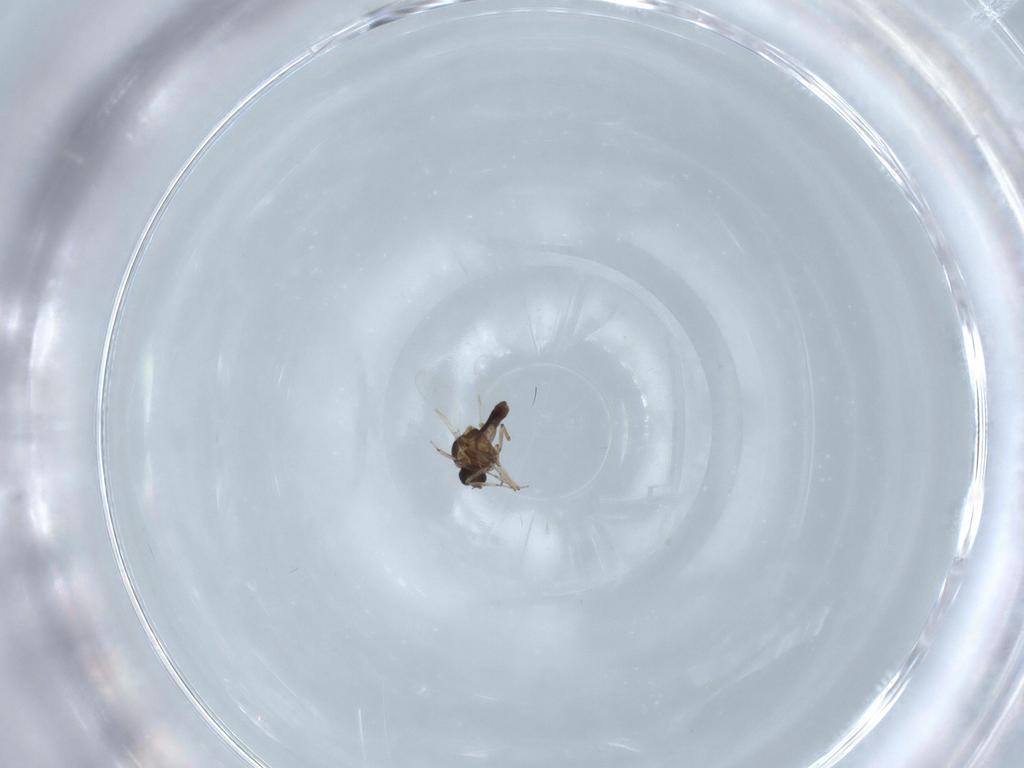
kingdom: Animalia
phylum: Arthropoda
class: Insecta
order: Diptera
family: Ceratopogonidae
